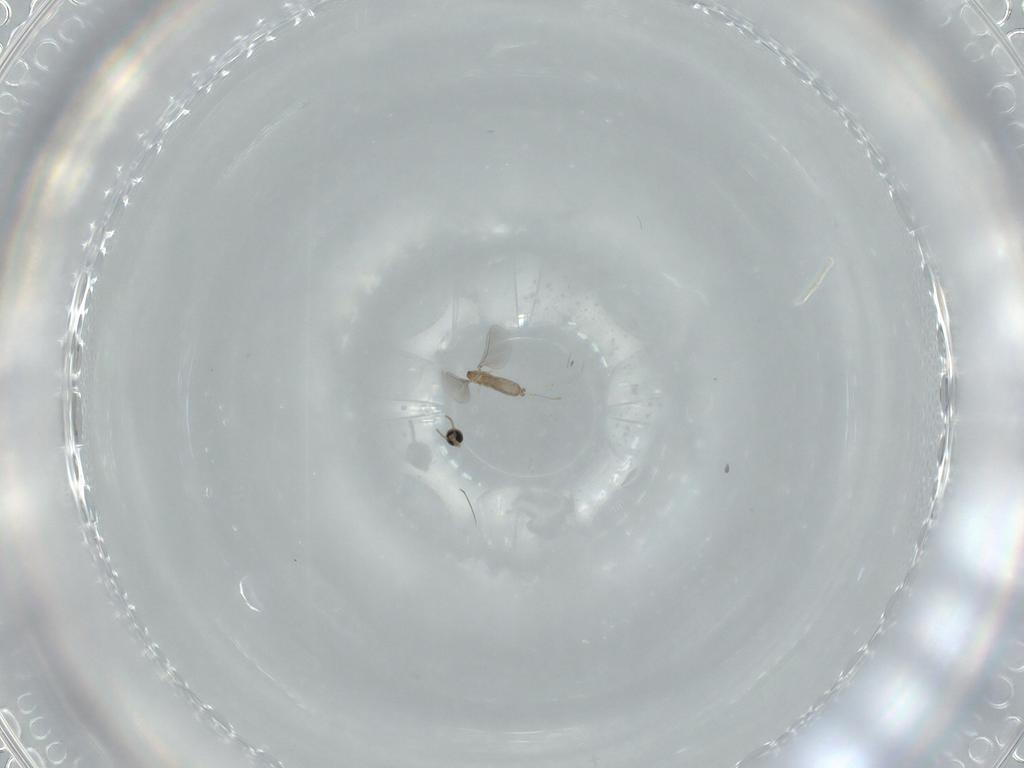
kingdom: Animalia
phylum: Arthropoda
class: Insecta
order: Diptera
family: Cecidomyiidae
